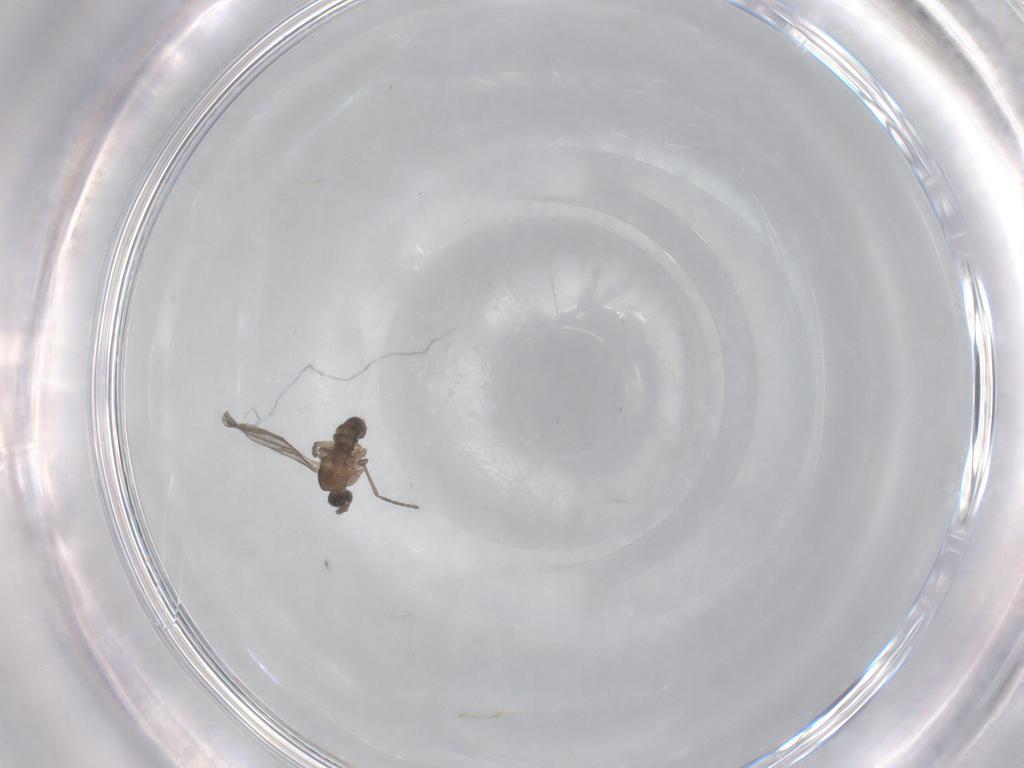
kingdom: Animalia
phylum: Arthropoda
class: Insecta
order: Diptera
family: Sciaridae
